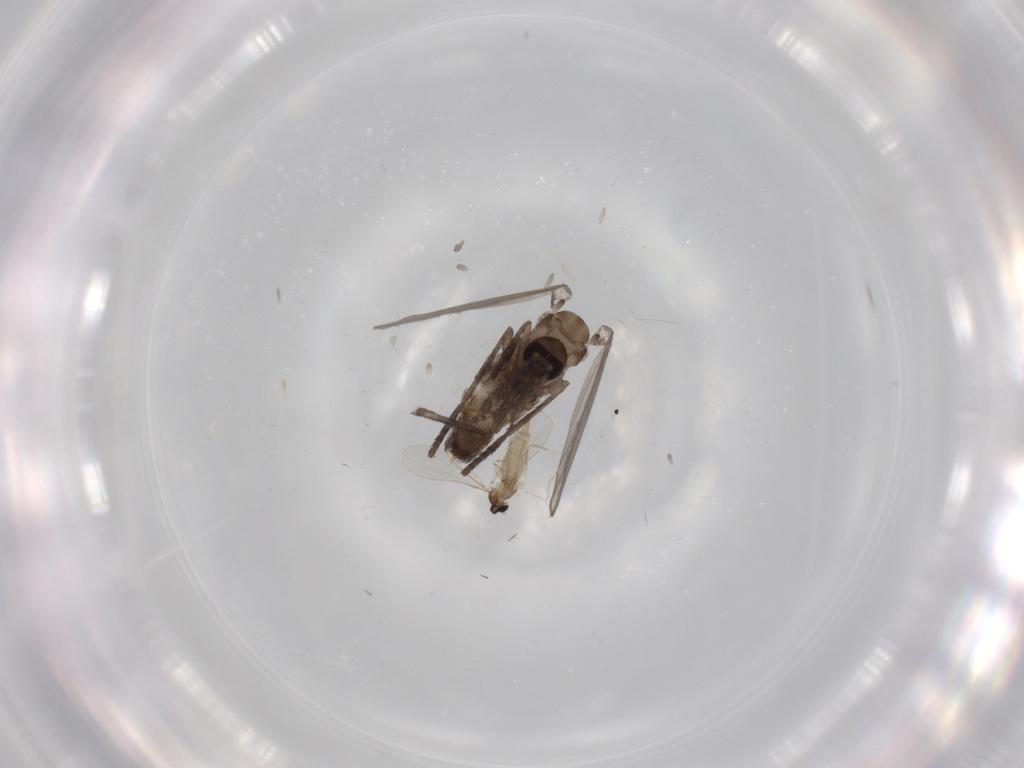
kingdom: Animalia
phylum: Arthropoda
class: Insecta
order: Diptera
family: Psychodidae
